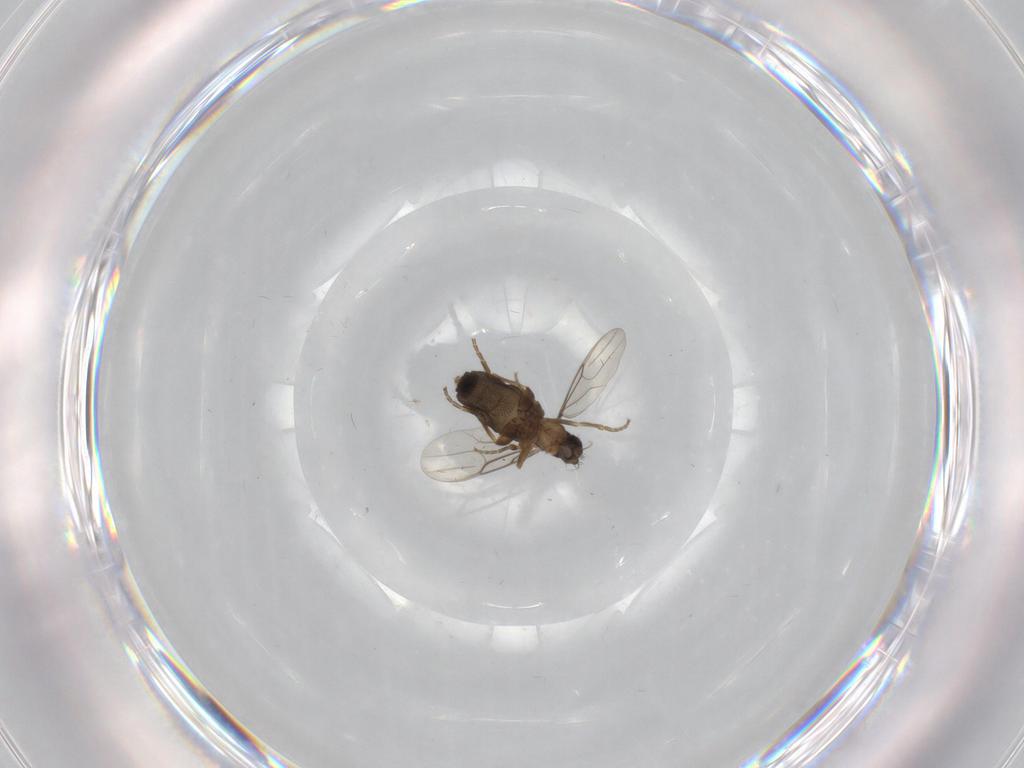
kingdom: Animalia
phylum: Arthropoda
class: Insecta
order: Diptera
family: Phoridae
